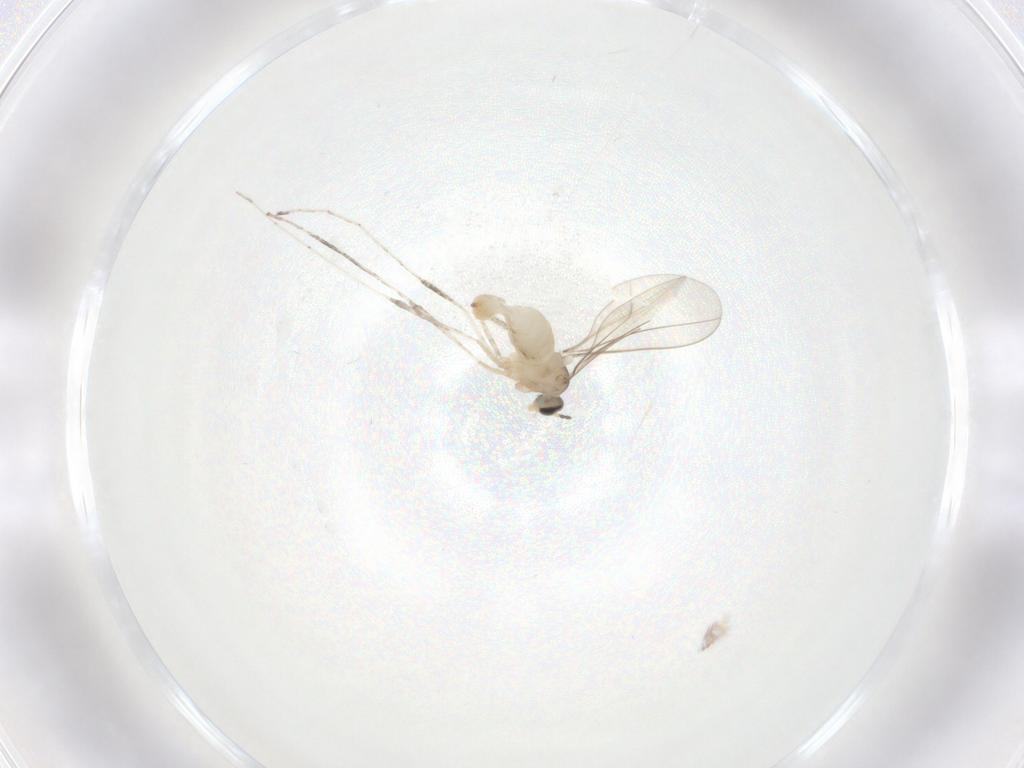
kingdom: Animalia
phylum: Arthropoda
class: Insecta
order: Diptera
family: Cecidomyiidae
